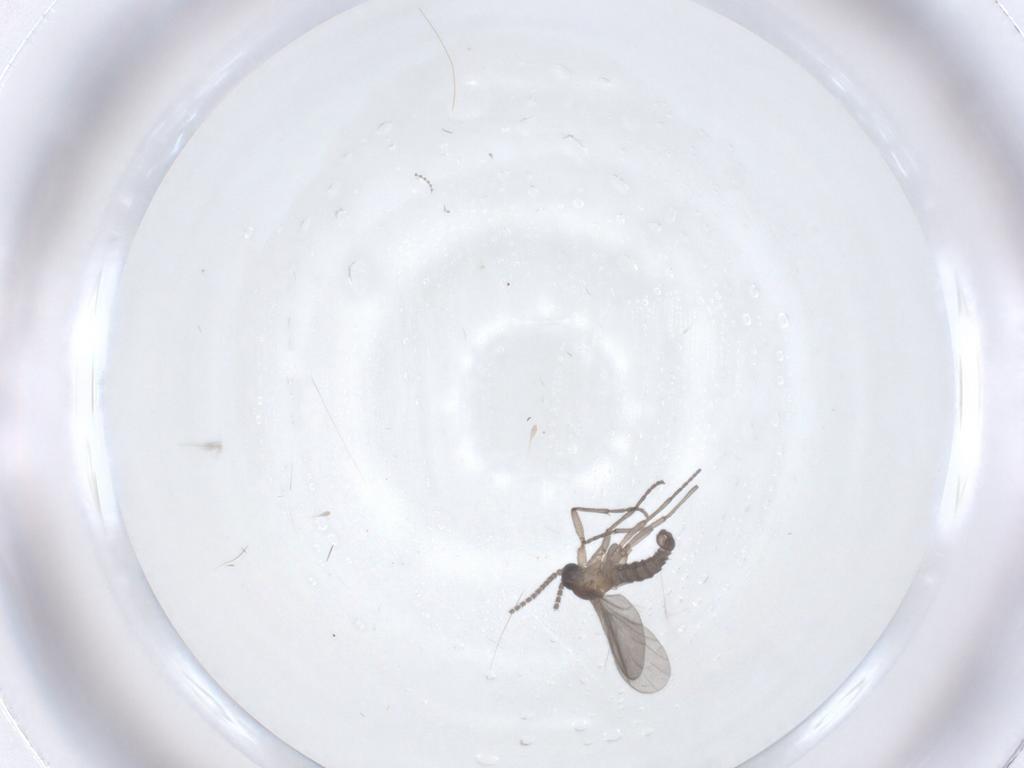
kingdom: Animalia
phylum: Arthropoda
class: Insecta
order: Diptera
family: Sciaridae
